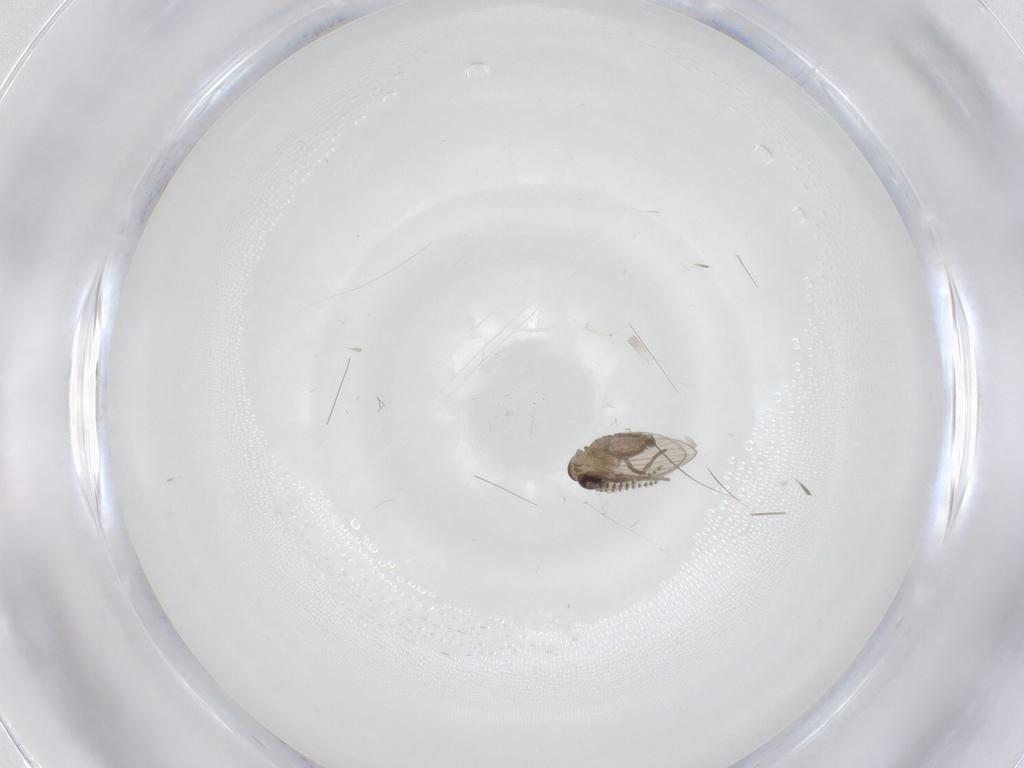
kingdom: Animalia
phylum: Arthropoda
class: Insecta
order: Diptera
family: Chironomidae
